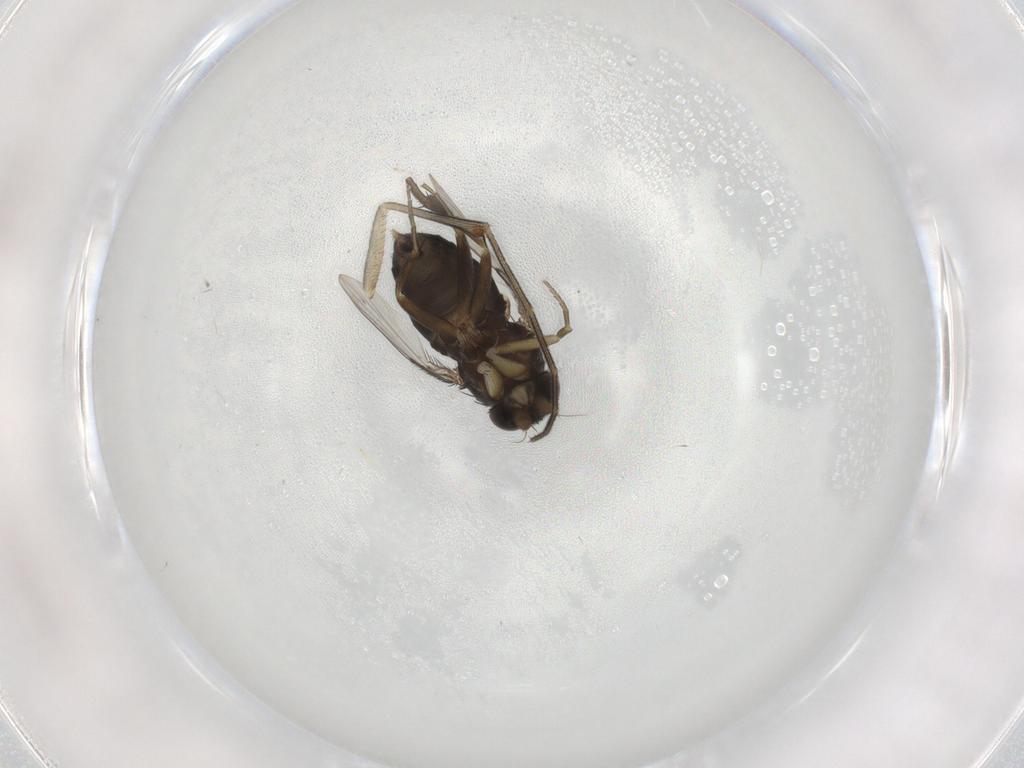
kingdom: Animalia
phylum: Arthropoda
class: Insecta
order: Diptera
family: Phoridae
